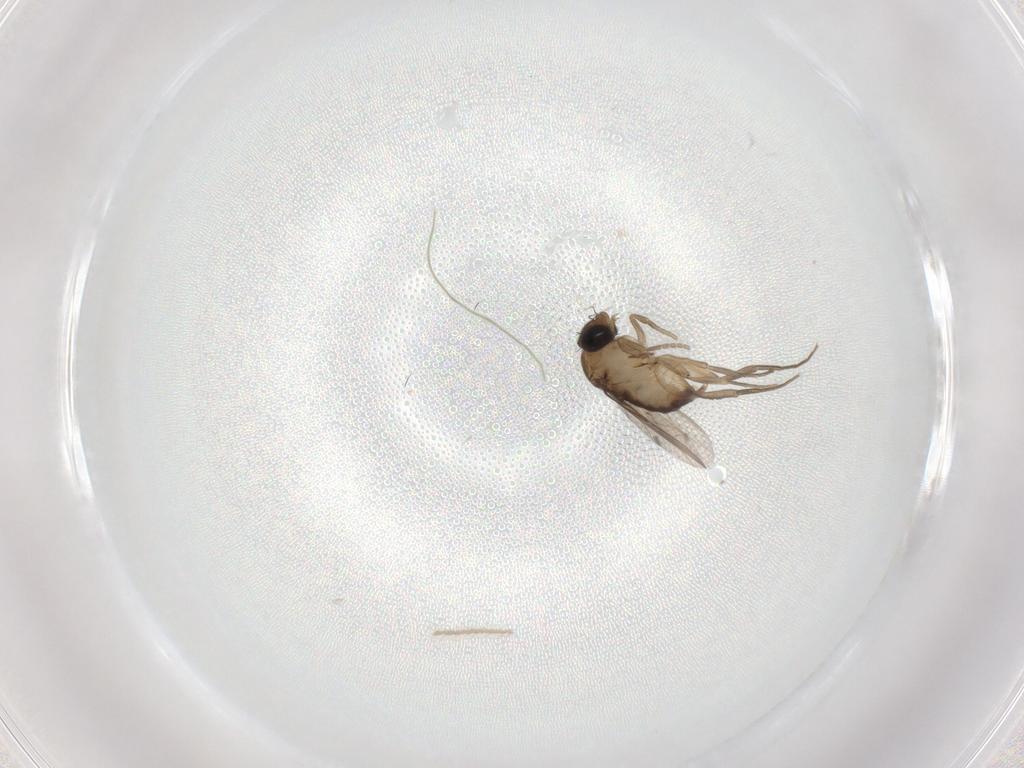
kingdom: Animalia
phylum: Arthropoda
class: Insecta
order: Diptera
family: Phoridae
